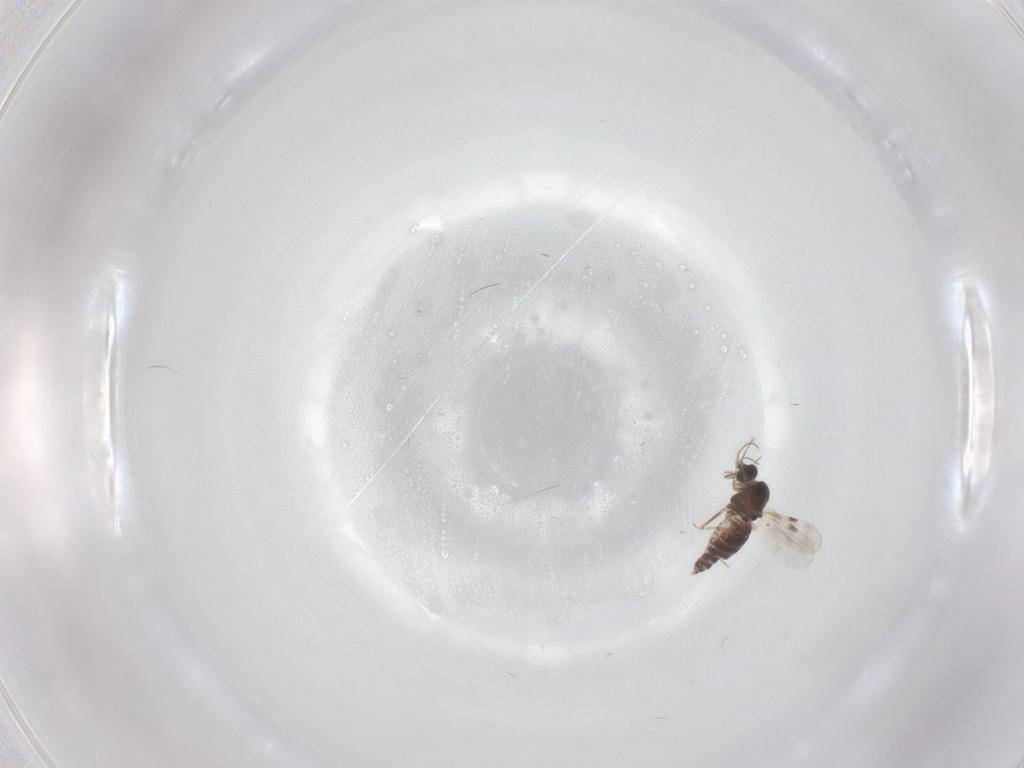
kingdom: Animalia
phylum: Arthropoda
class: Insecta
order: Diptera
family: Phoridae
